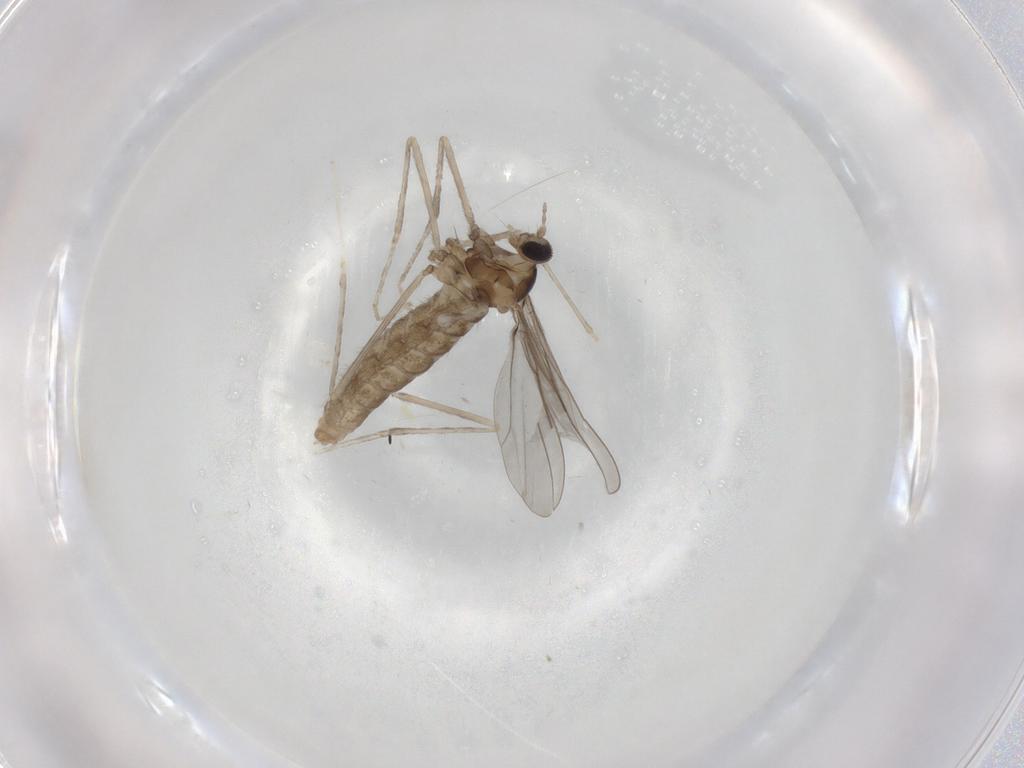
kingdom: Animalia
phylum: Arthropoda
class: Insecta
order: Diptera
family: Cecidomyiidae
